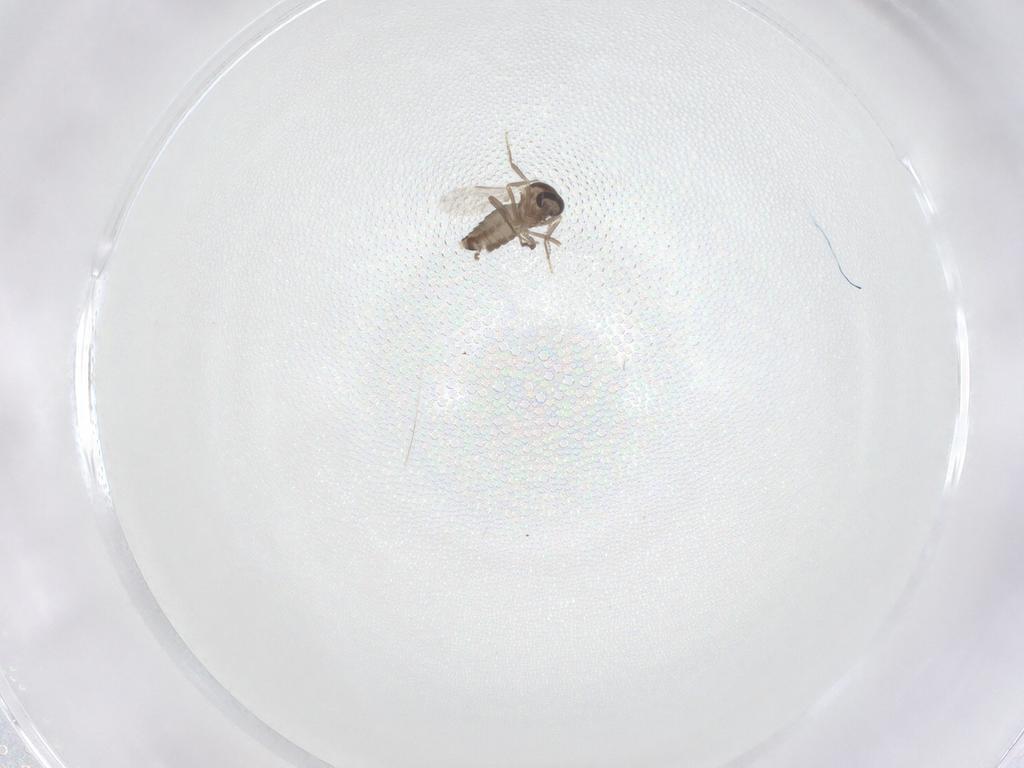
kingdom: Animalia
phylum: Arthropoda
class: Insecta
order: Diptera
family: Ceratopogonidae
